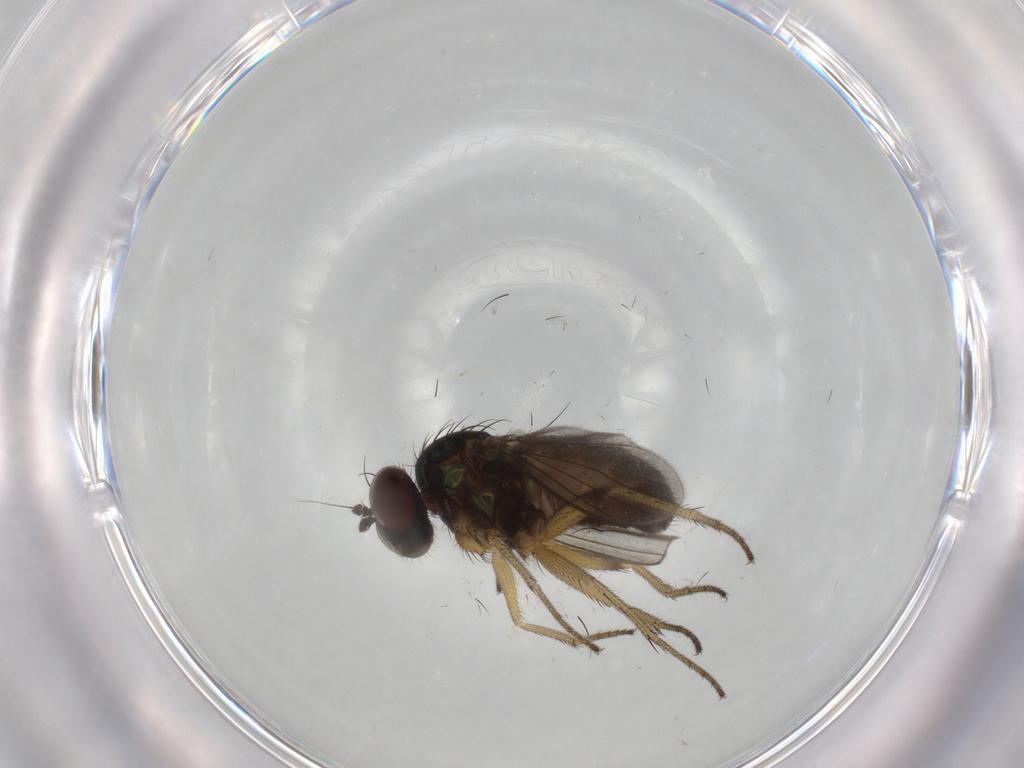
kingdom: Animalia
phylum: Arthropoda
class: Insecta
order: Diptera
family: Dolichopodidae
